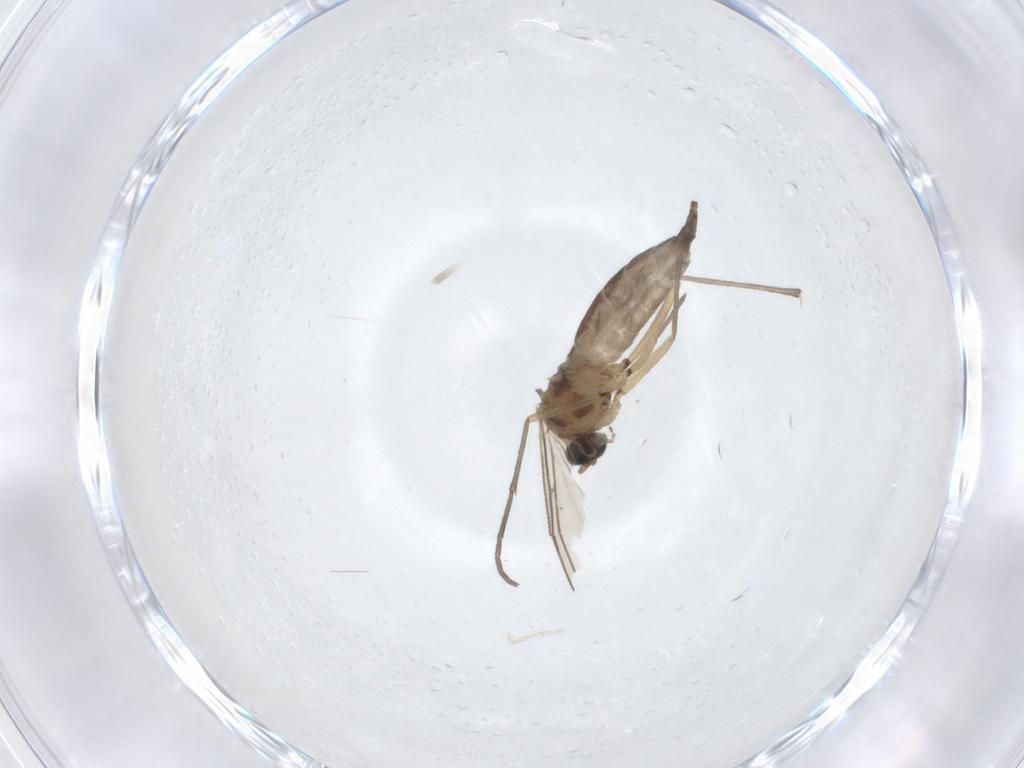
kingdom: Animalia
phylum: Arthropoda
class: Insecta
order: Diptera
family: Sciaridae
